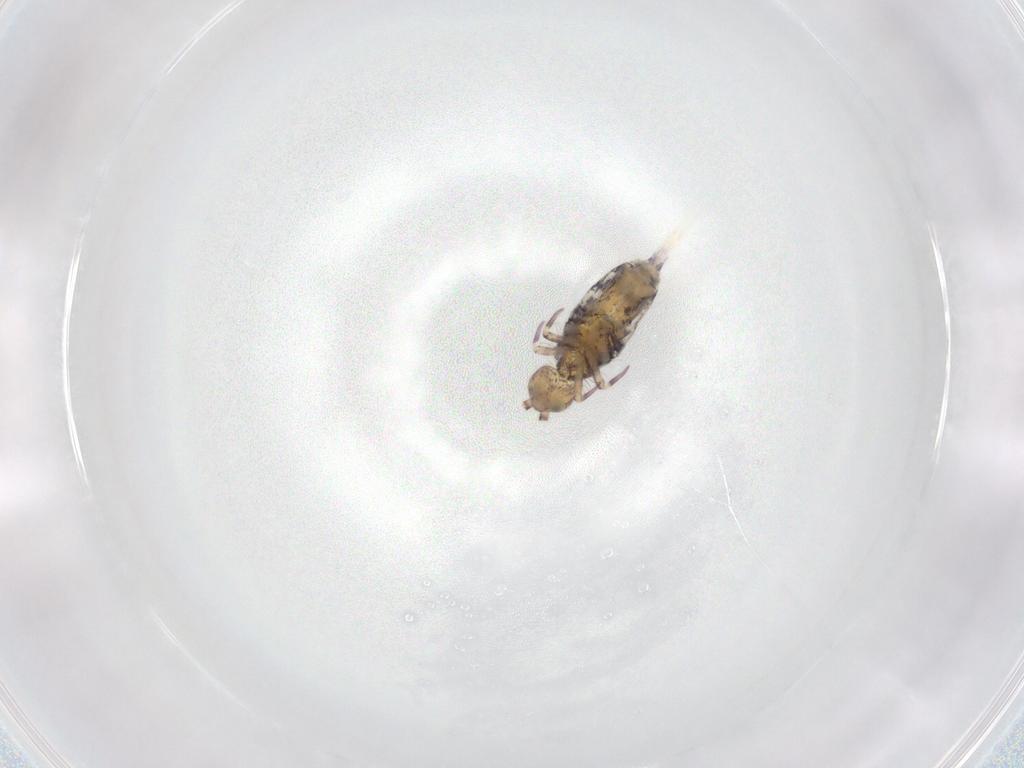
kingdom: Animalia
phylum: Arthropoda
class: Collembola
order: Entomobryomorpha
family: Entomobryidae
